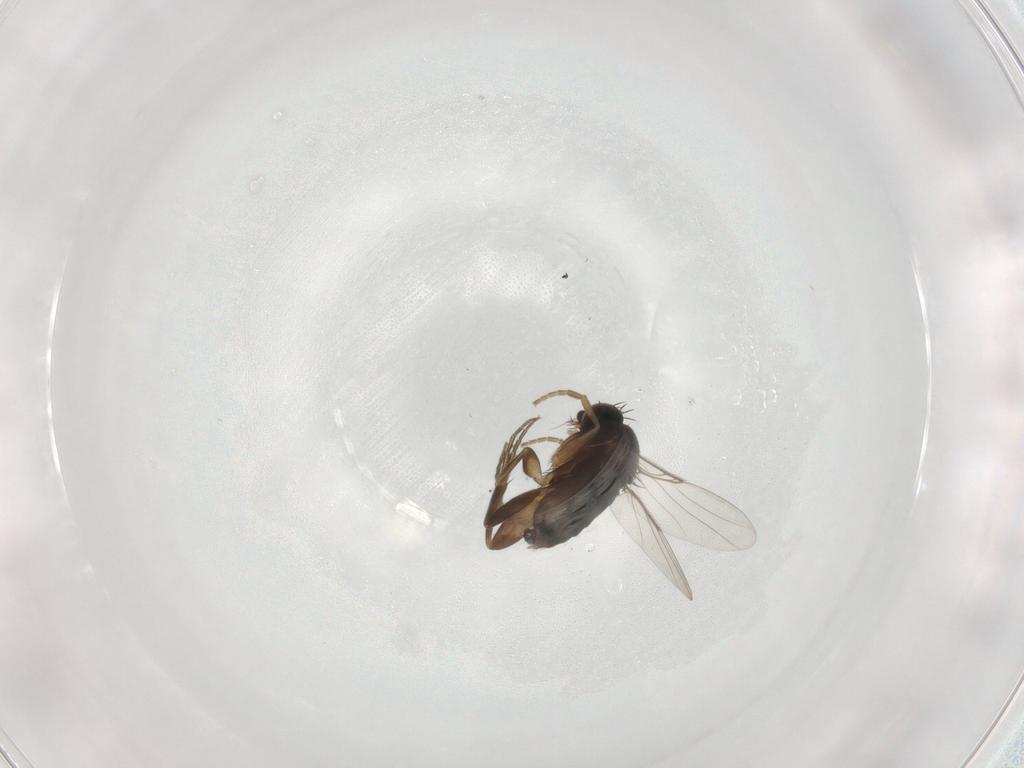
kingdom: Animalia
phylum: Arthropoda
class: Insecta
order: Diptera
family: Phoridae
